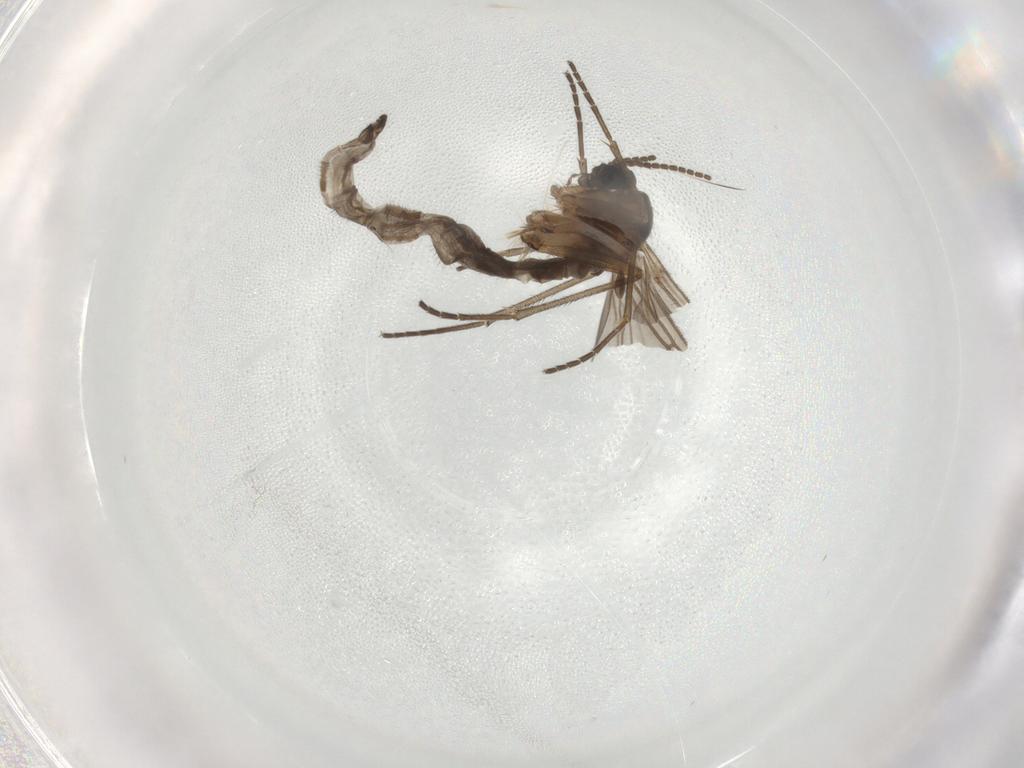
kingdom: Animalia
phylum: Arthropoda
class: Insecta
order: Diptera
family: Sciaridae
